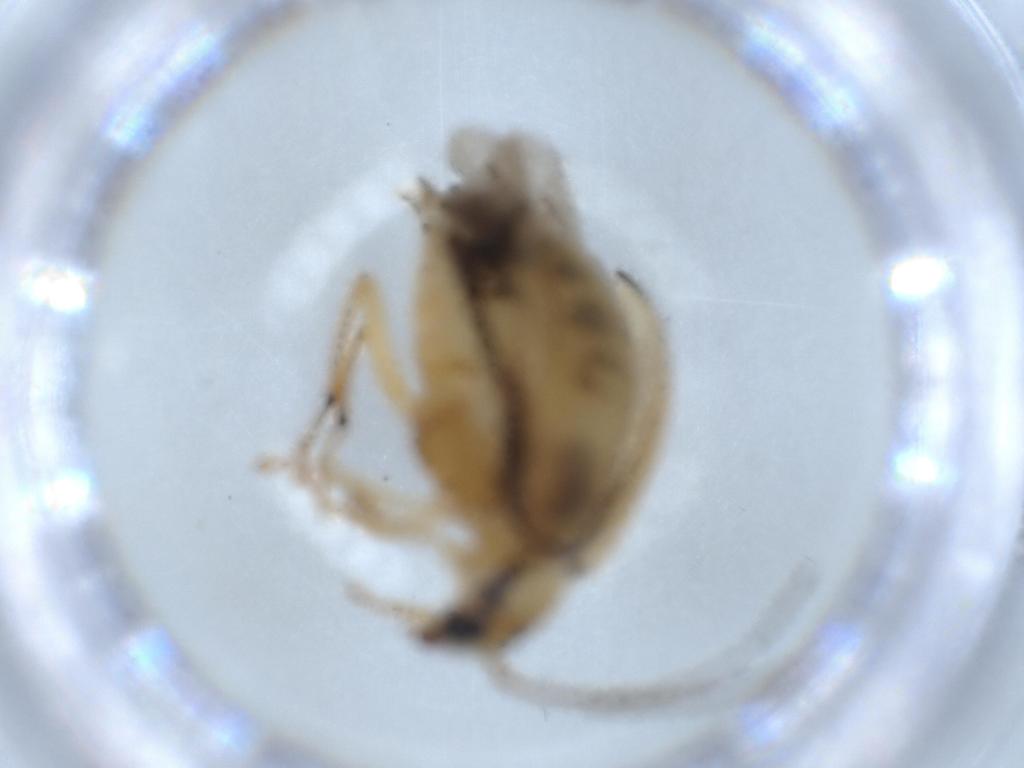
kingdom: Animalia
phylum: Arthropoda
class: Insecta
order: Coleoptera
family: Chrysomelidae
